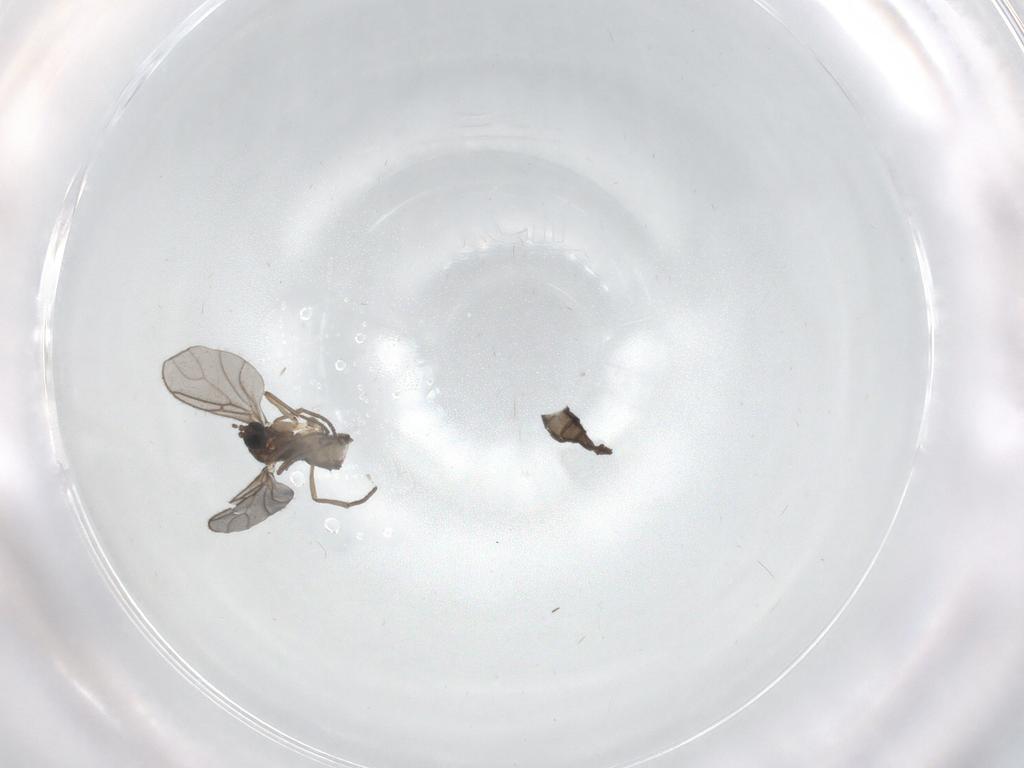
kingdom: Animalia
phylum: Arthropoda
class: Insecta
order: Diptera
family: Sciaridae
